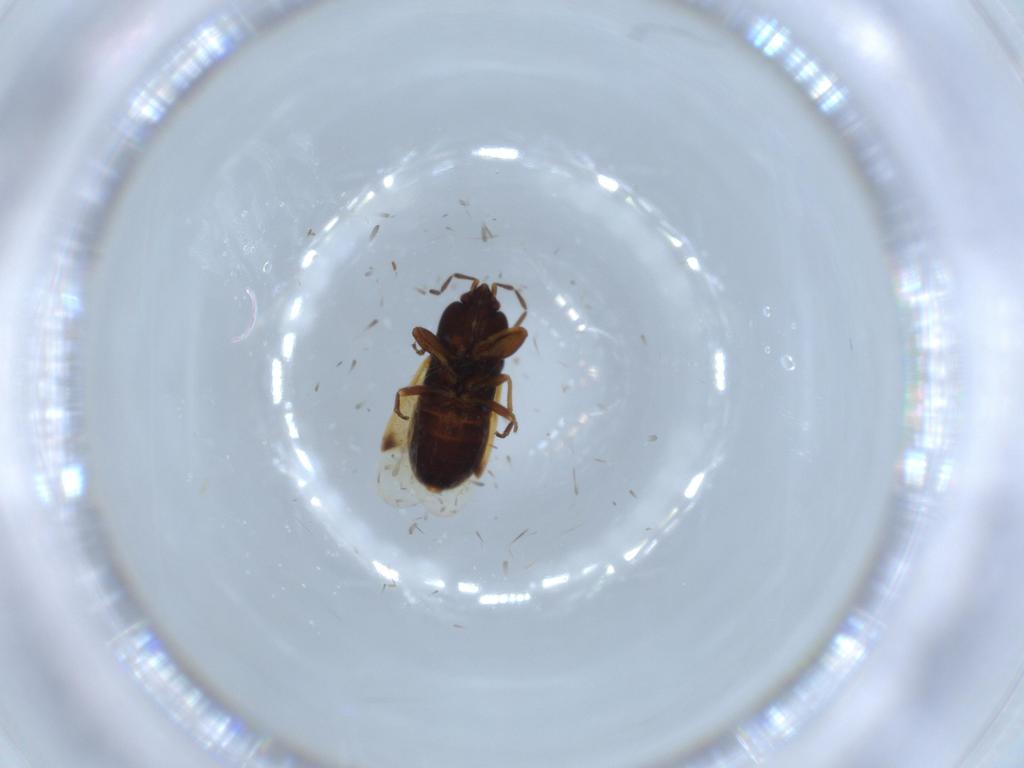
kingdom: Animalia
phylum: Arthropoda
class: Insecta
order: Hemiptera
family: Rhyparochromidae
